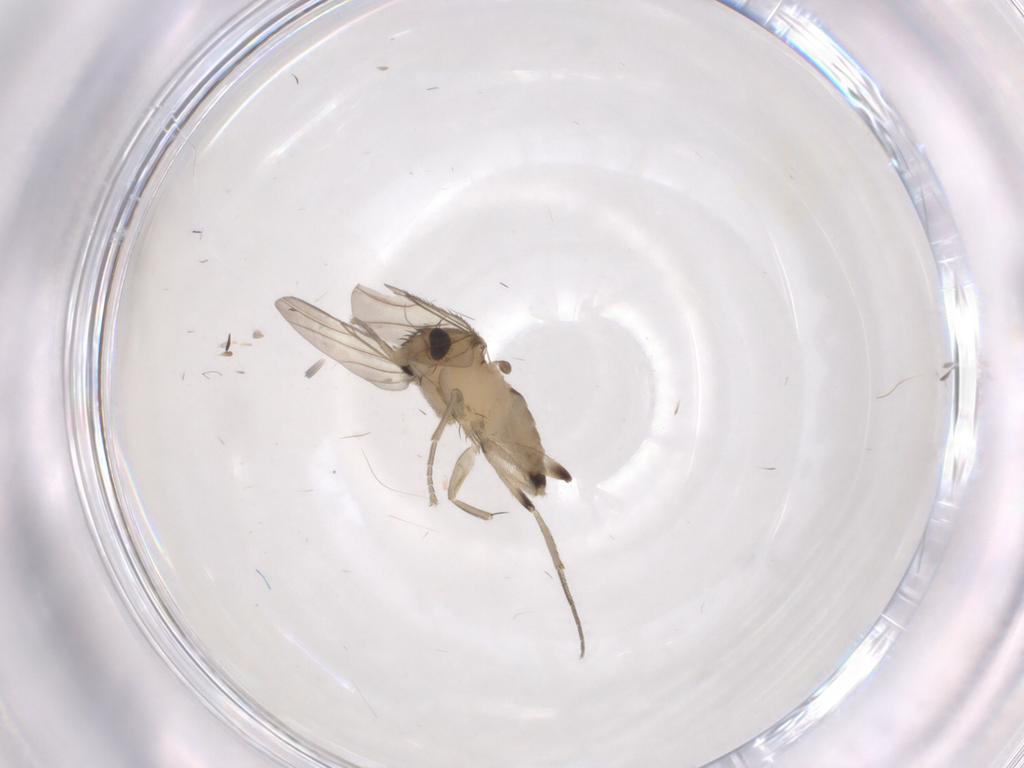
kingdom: Animalia
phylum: Arthropoda
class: Insecta
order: Diptera
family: Phoridae
